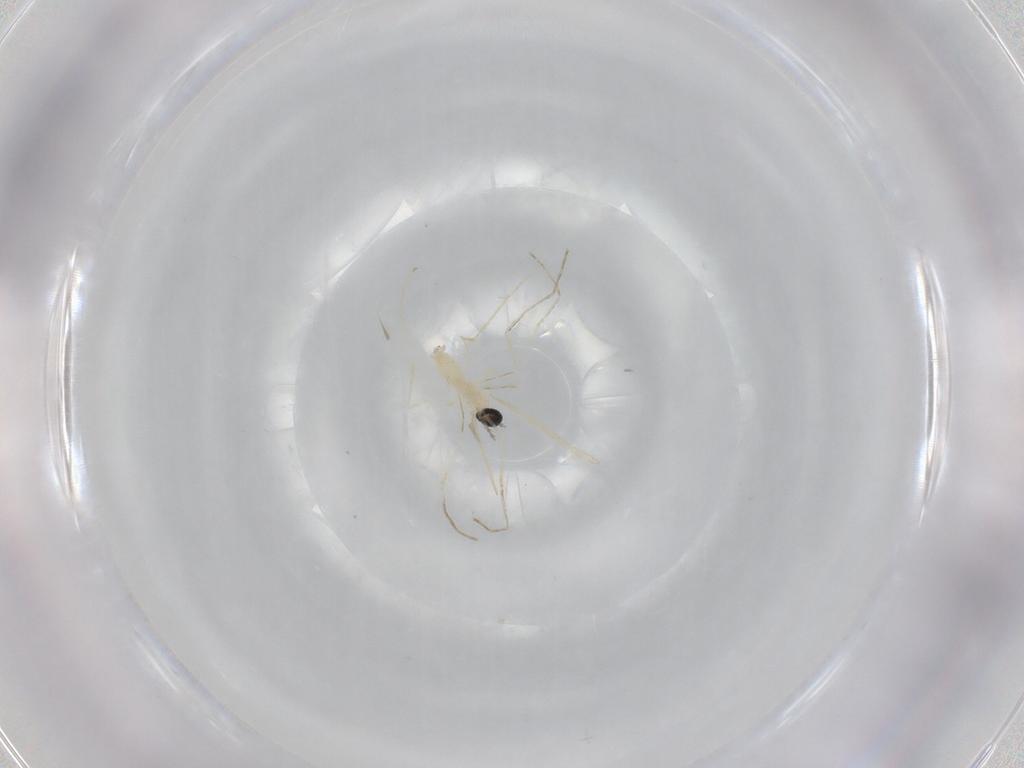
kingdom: Animalia
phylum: Arthropoda
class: Insecta
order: Diptera
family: Cecidomyiidae
